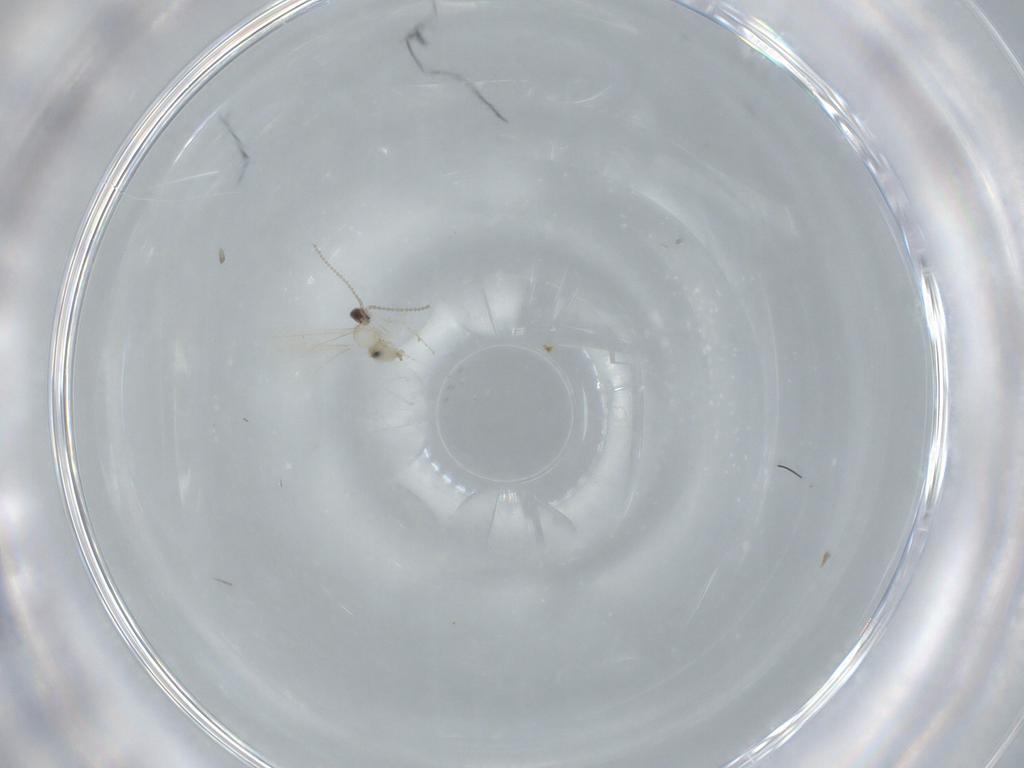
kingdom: Animalia
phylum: Arthropoda
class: Insecta
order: Diptera
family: Cecidomyiidae
